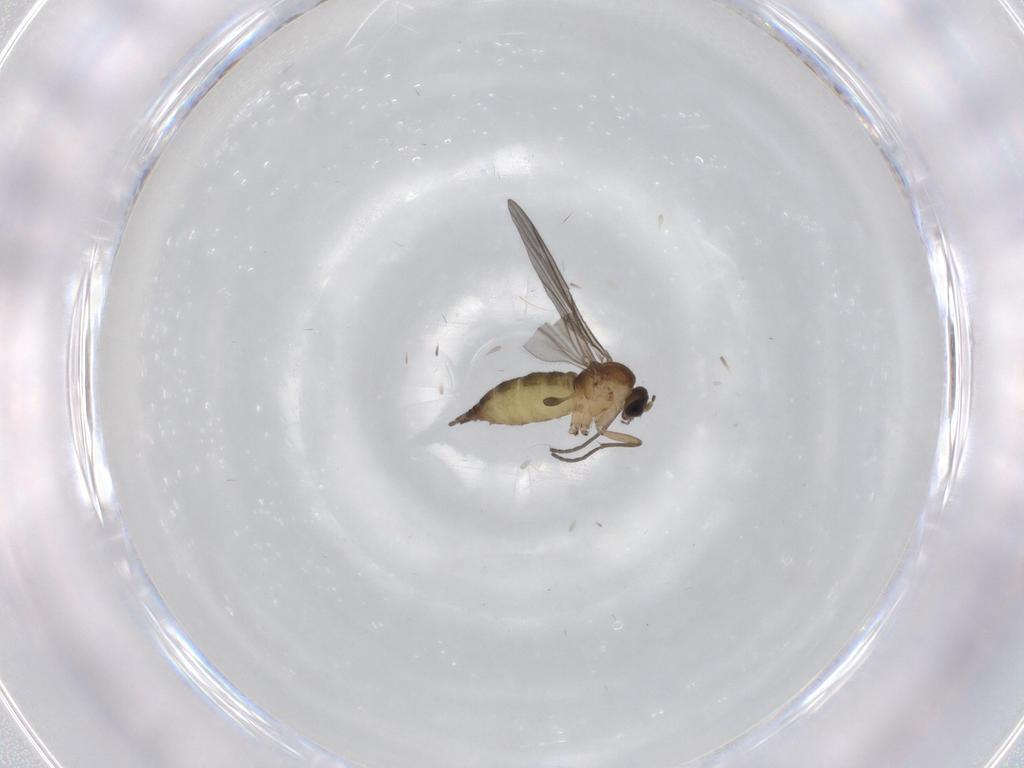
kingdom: Animalia
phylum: Arthropoda
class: Insecta
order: Diptera
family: Sciaridae
